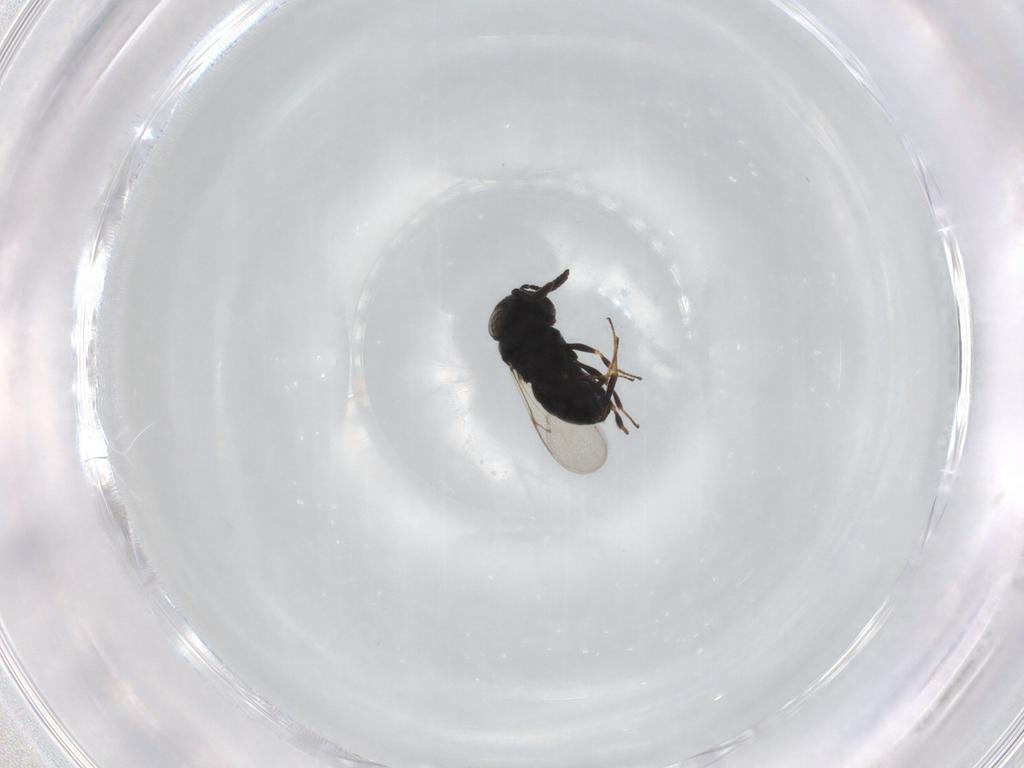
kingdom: Animalia
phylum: Arthropoda
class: Insecta
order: Hymenoptera
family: Scelionidae
